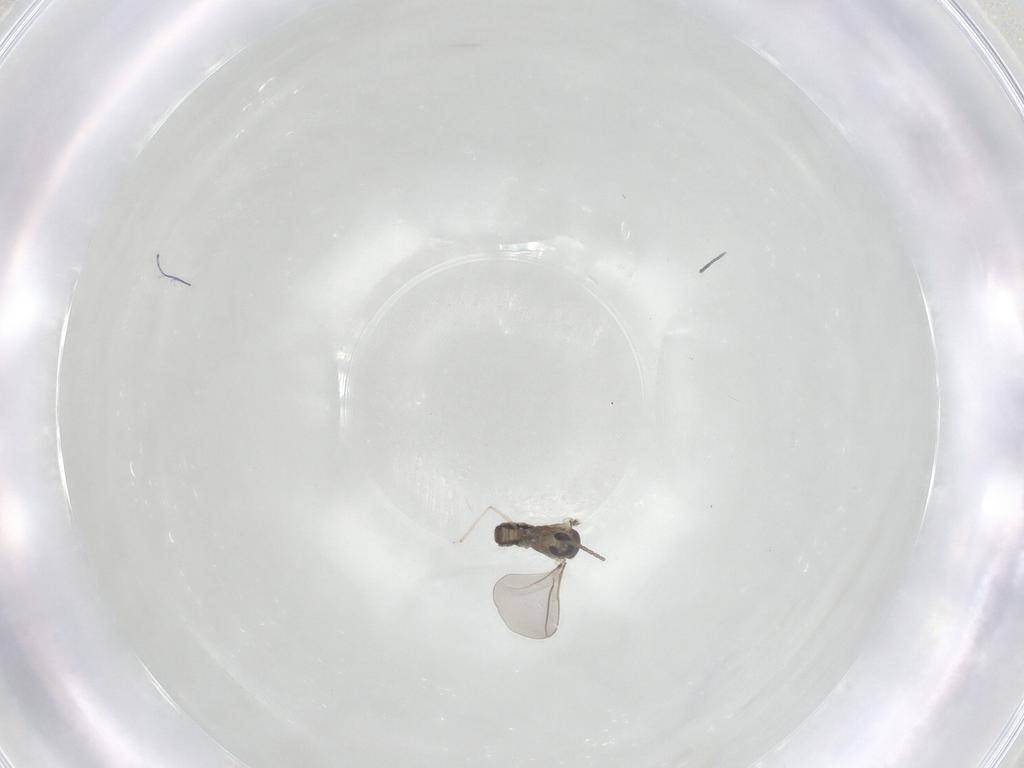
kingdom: Animalia
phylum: Arthropoda
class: Insecta
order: Diptera
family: Cecidomyiidae
